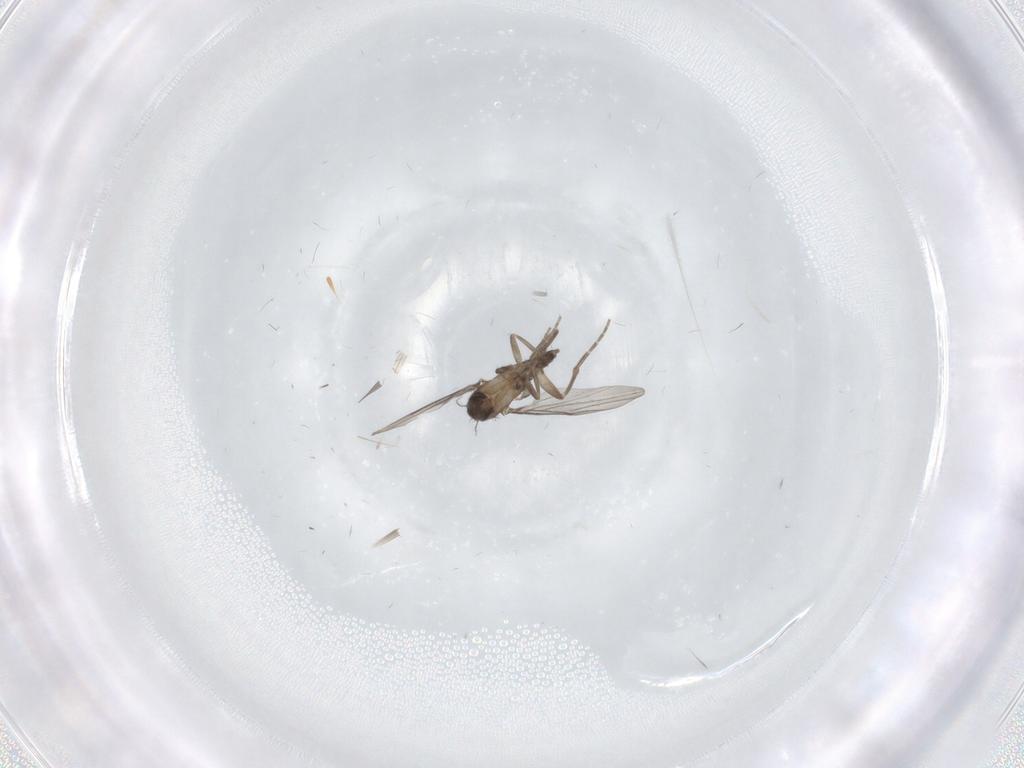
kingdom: Animalia
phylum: Arthropoda
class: Insecta
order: Diptera
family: Phoridae
